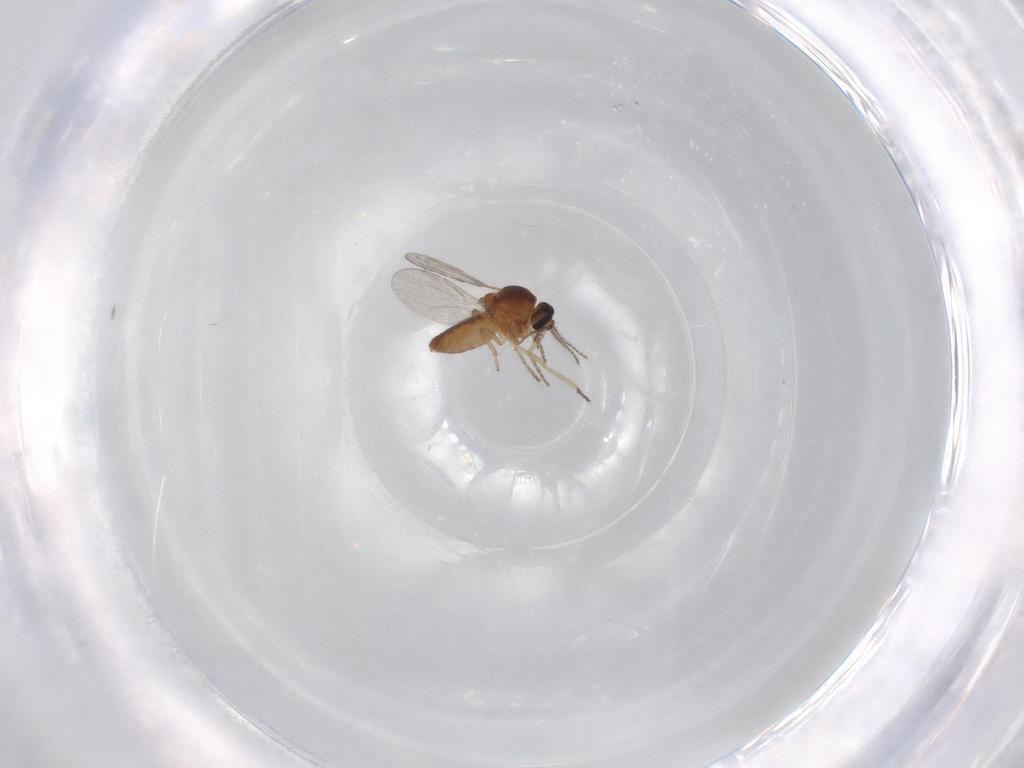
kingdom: Animalia
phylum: Arthropoda
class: Insecta
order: Diptera
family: Ceratopogonidae
